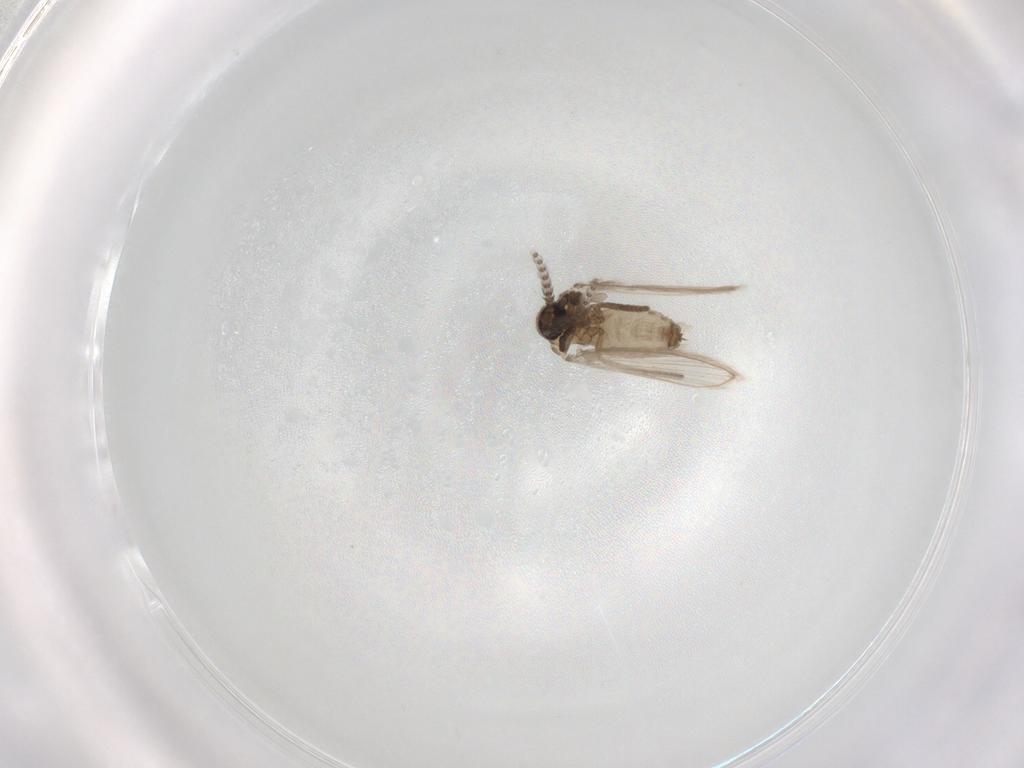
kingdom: Animalia
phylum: Arthropoda
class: Insecta
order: Diptera
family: Psychodidae
